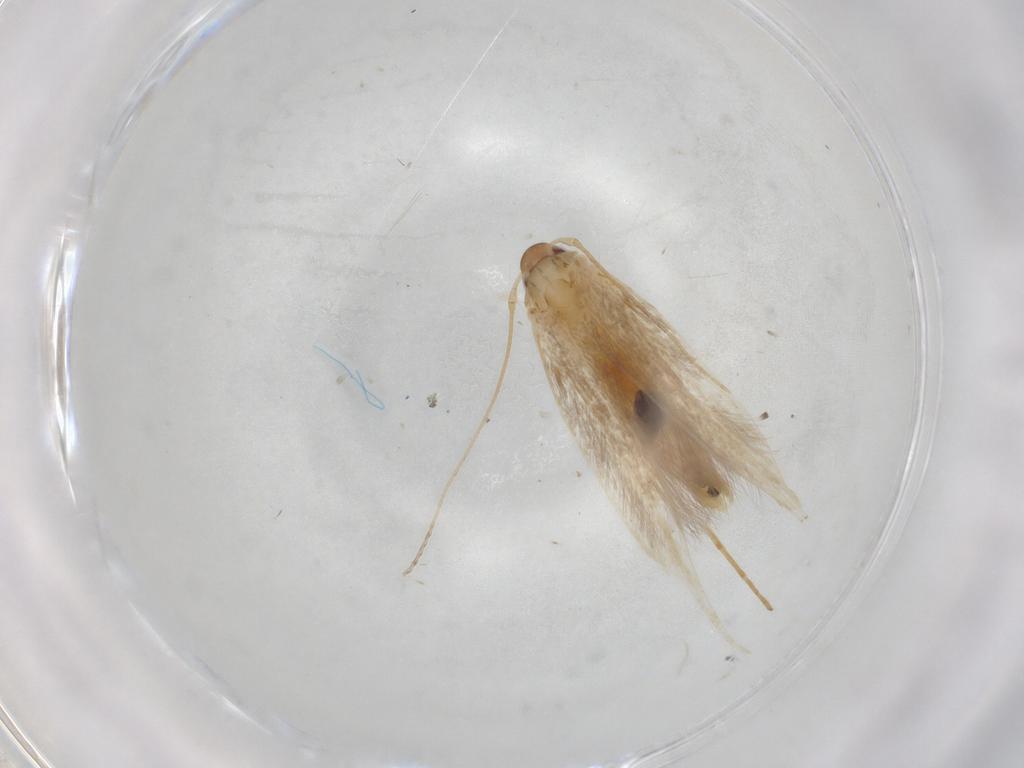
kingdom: Animalia
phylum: Arthropoda
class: Insecta
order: Lepidoptera
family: Cosmopterigidae
